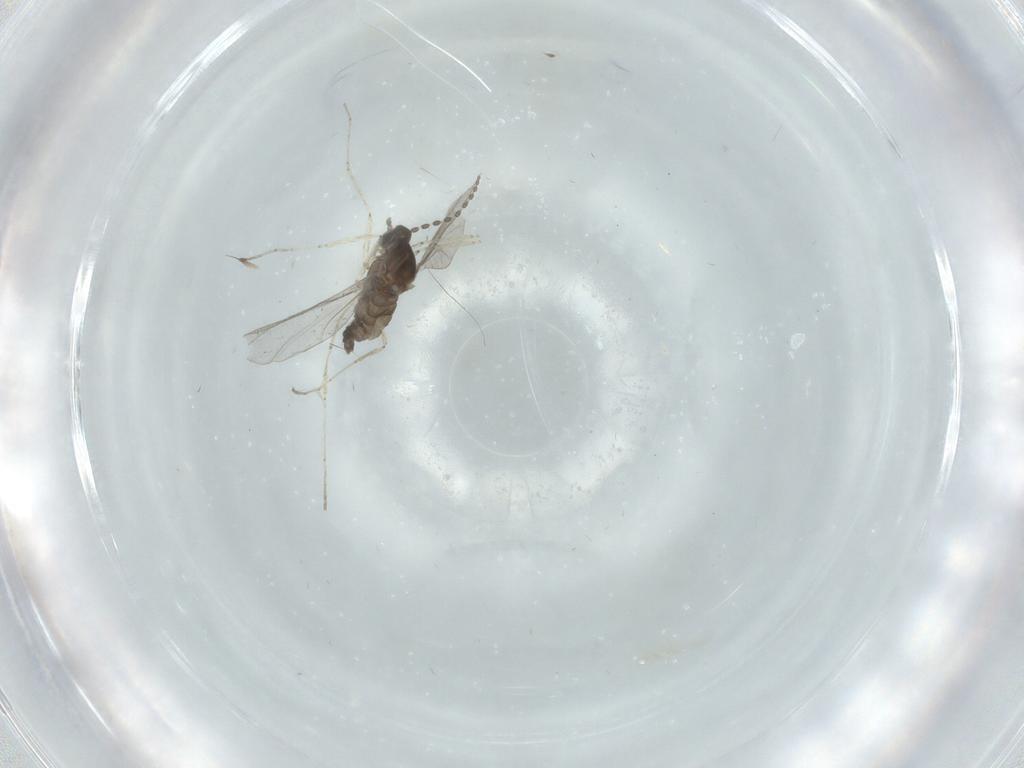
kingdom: Animalia
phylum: Arthropoda
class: Insecta
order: Diptera
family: Cecidomyiidae
